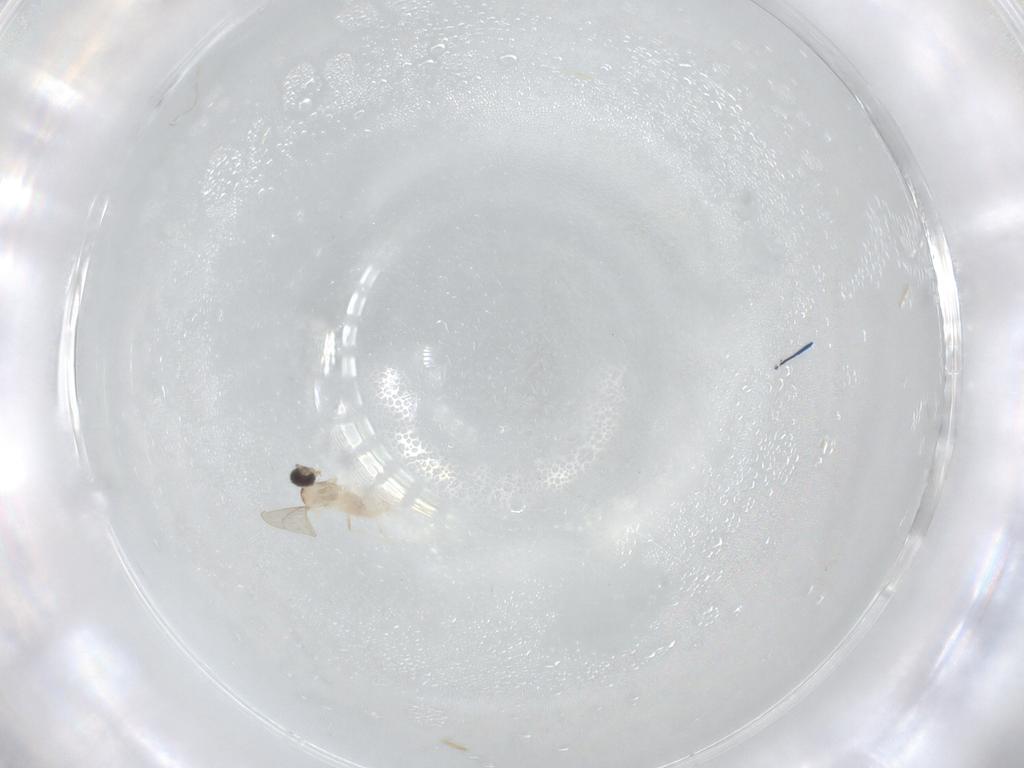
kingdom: Animalia
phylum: Arthropoda
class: Insecta
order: Diptera
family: Cecidomyiidae
